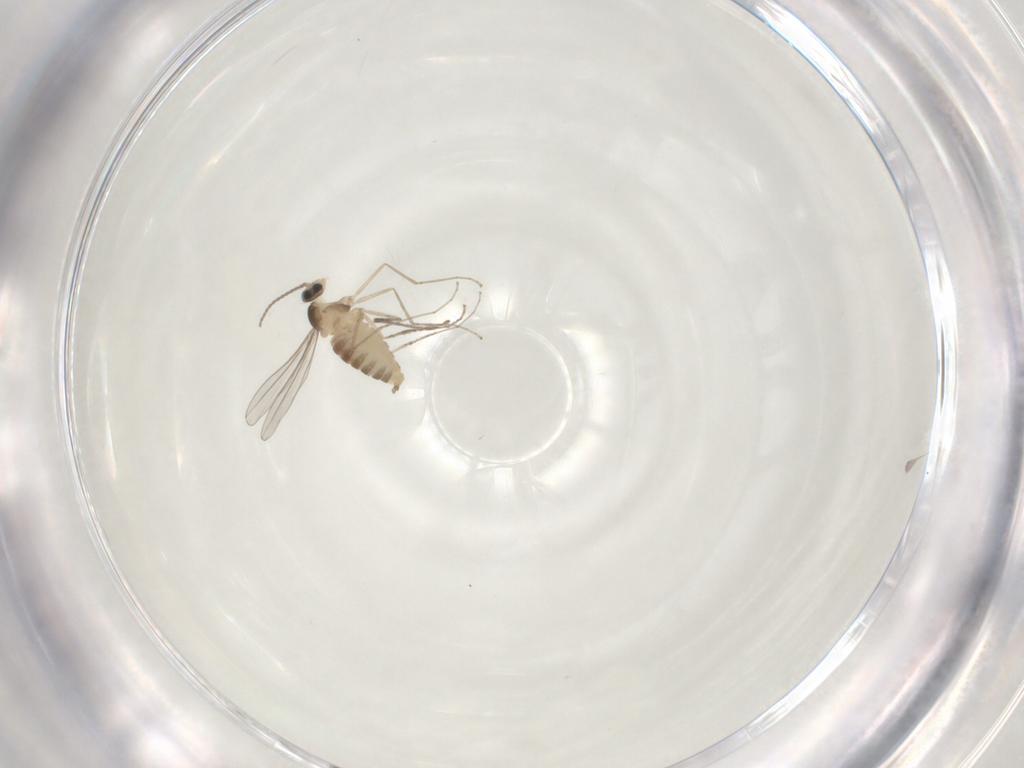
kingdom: Animalia
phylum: Arthropoda
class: Insecta
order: Diptera
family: Cecidomyiidae
